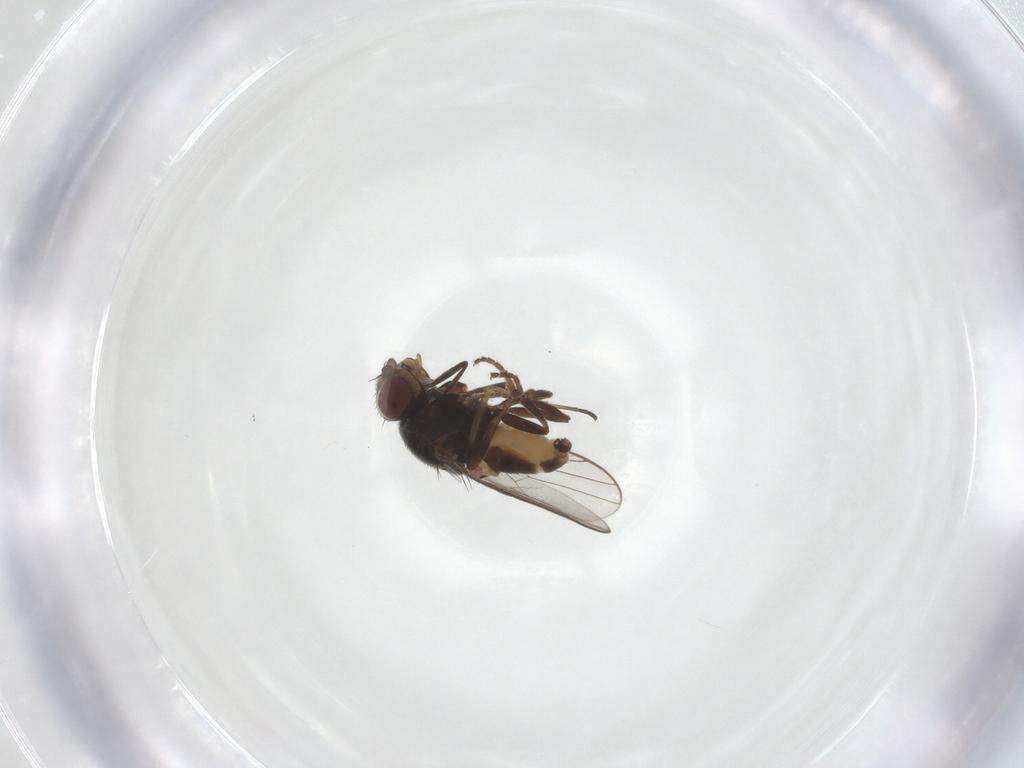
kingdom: Animalia
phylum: Arthropoda
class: Insecta
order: Diptera
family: Chloropidae
